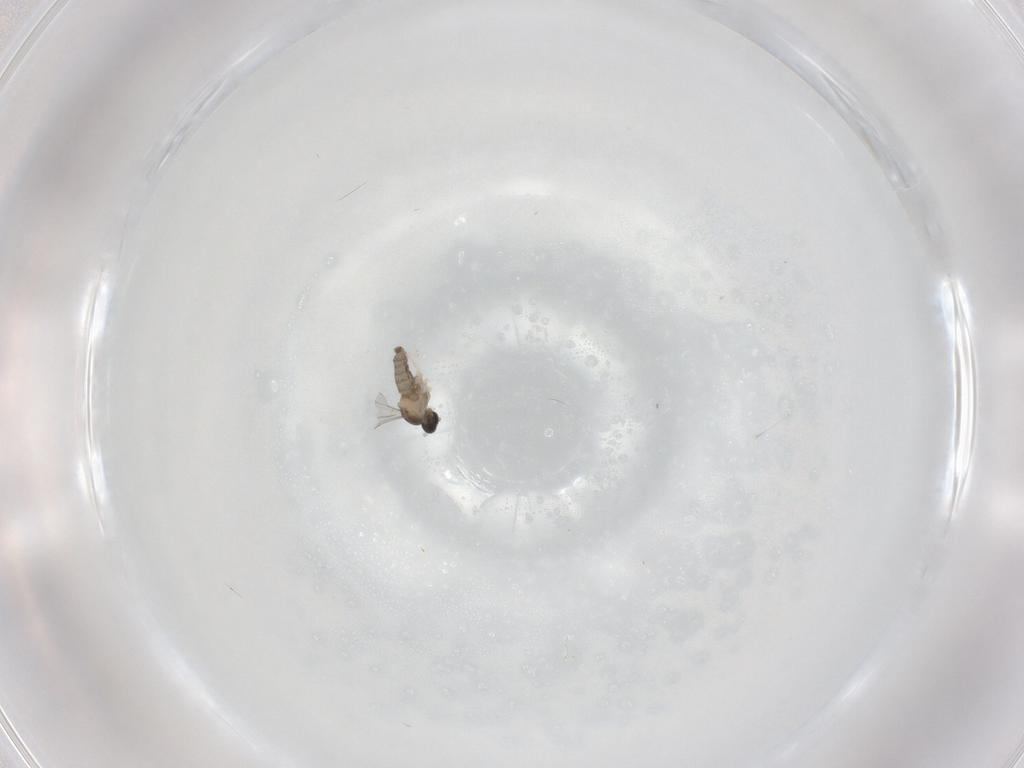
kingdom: Animalia
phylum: Arthropoda
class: Insecta
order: Diptera
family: Cecidomyiidae
